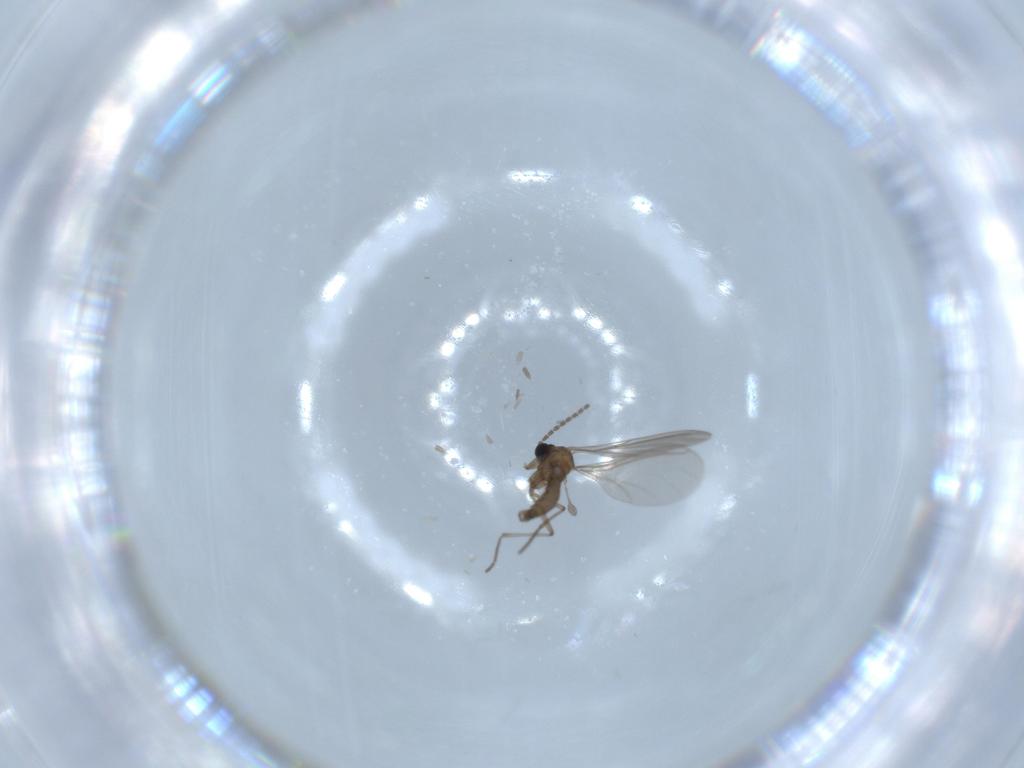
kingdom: Animalia
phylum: Arthropoda
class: Insecta
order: Diptera
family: Sciaridae
